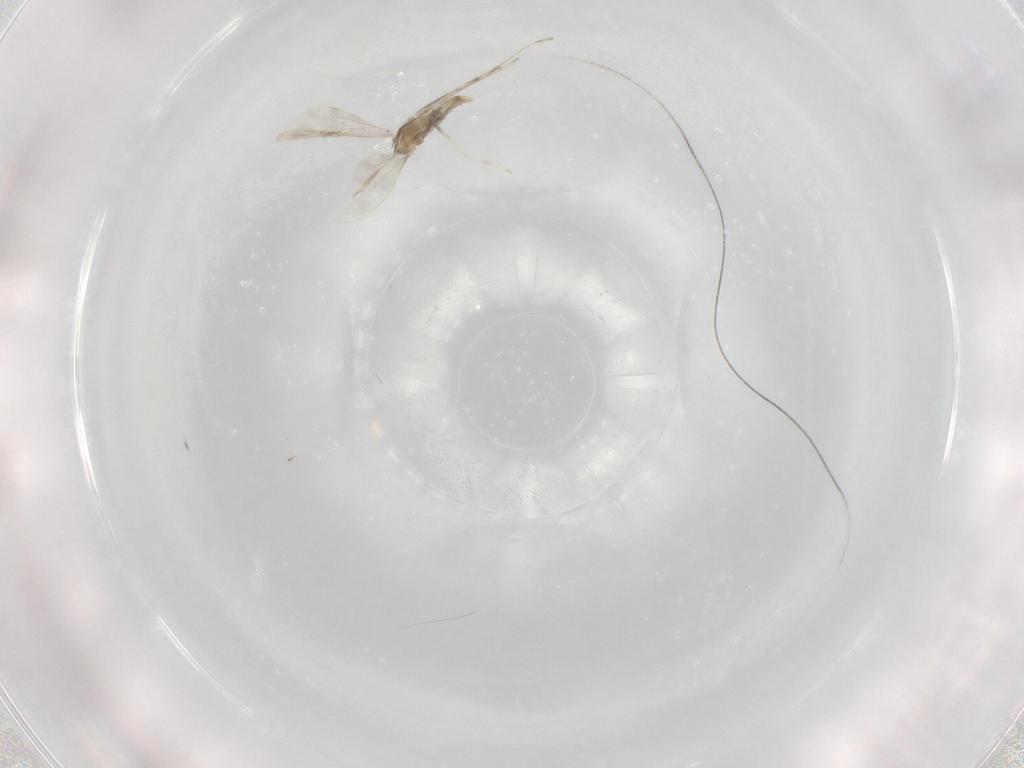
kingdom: Animalia
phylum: Arthropoda
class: Insecta
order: Diptera
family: Cecidomyiidae
